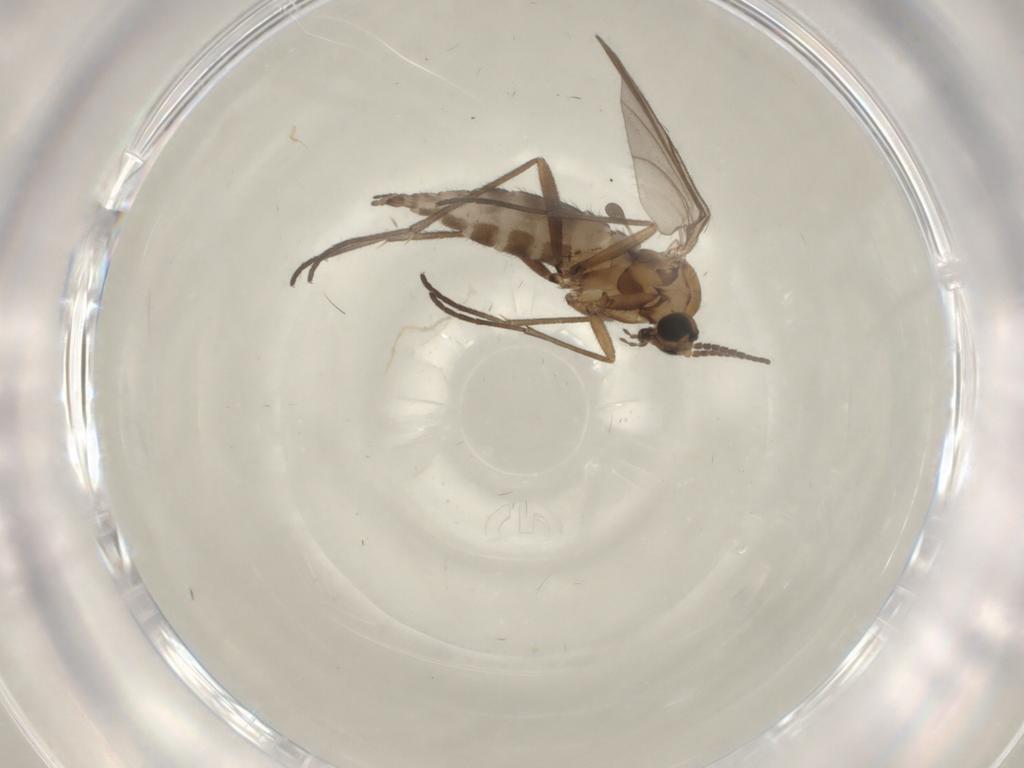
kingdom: Animalia
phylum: Arthropoda
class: Insecta
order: Diptera
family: Sciaridae
